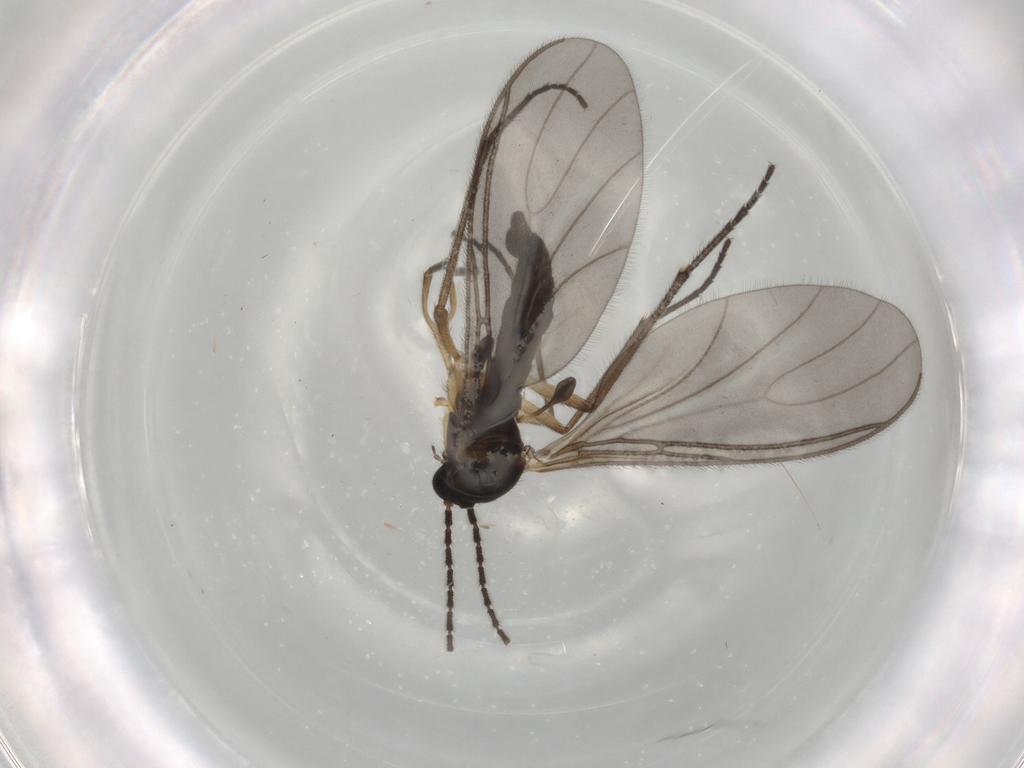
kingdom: Animalia
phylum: Arthropoda
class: Insecta
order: Diptera
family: Sciaridae
